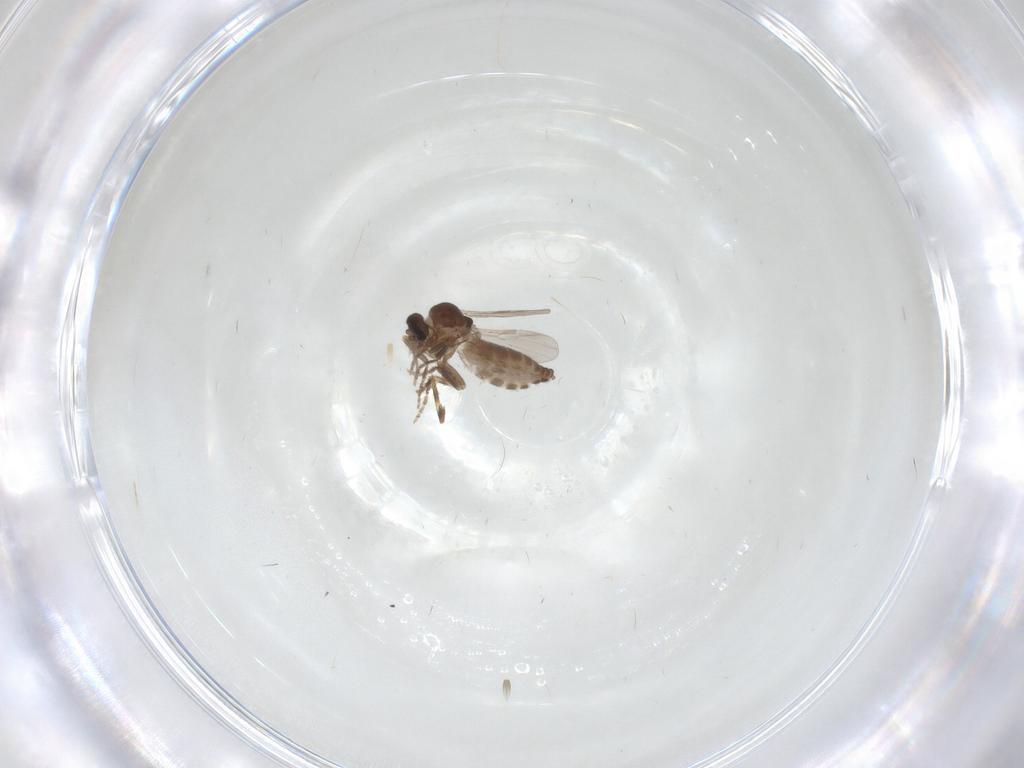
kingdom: Animalia
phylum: Arthropoda
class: Insecta
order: Diptera
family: Ceratopogonidae
